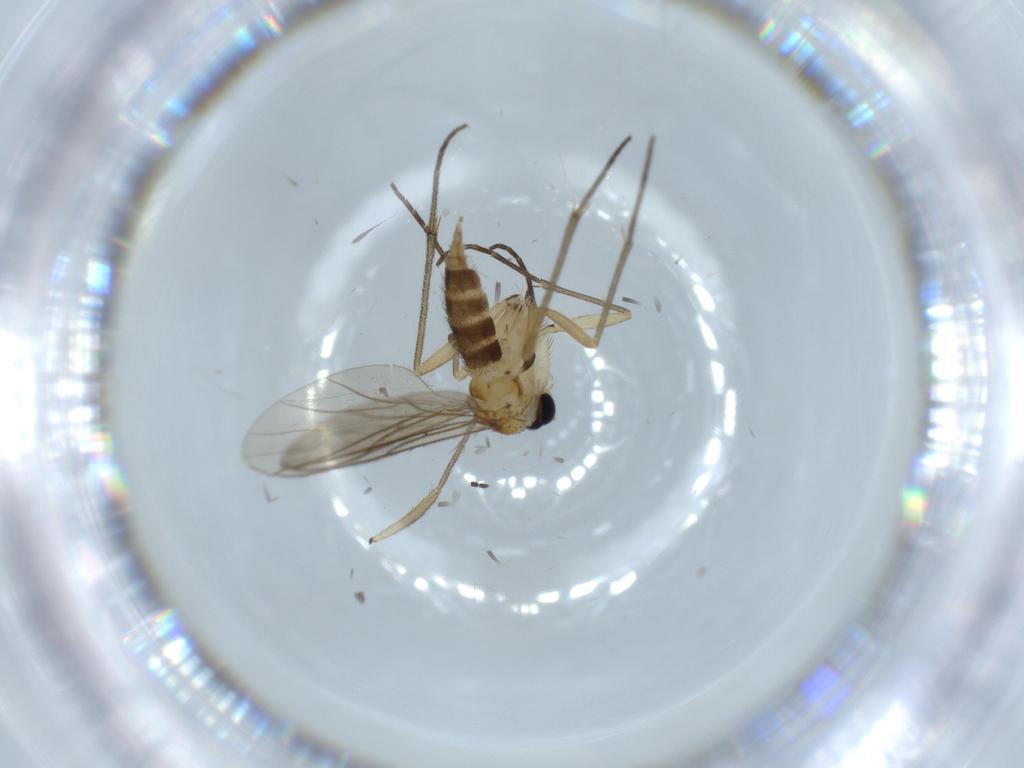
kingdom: Animalia
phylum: Arthropoda
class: Insecta
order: Diptera
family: Sciaridae
